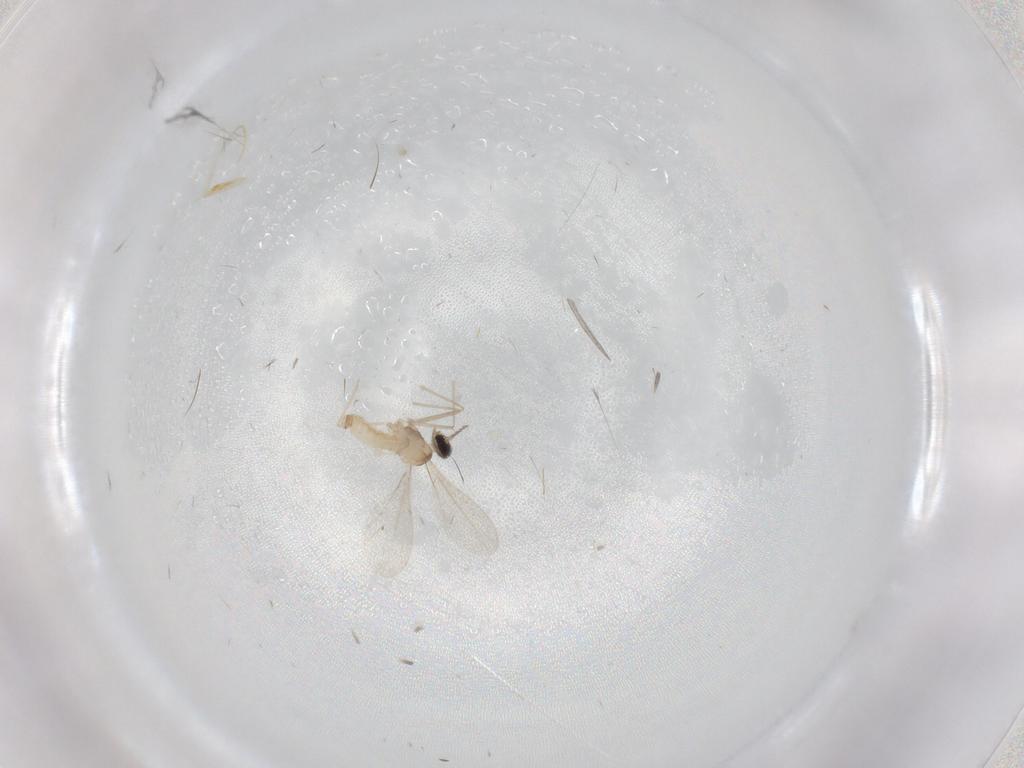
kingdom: Animalia
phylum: Arthropoda
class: Insecta
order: Diptera
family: Cecidomyiidae
